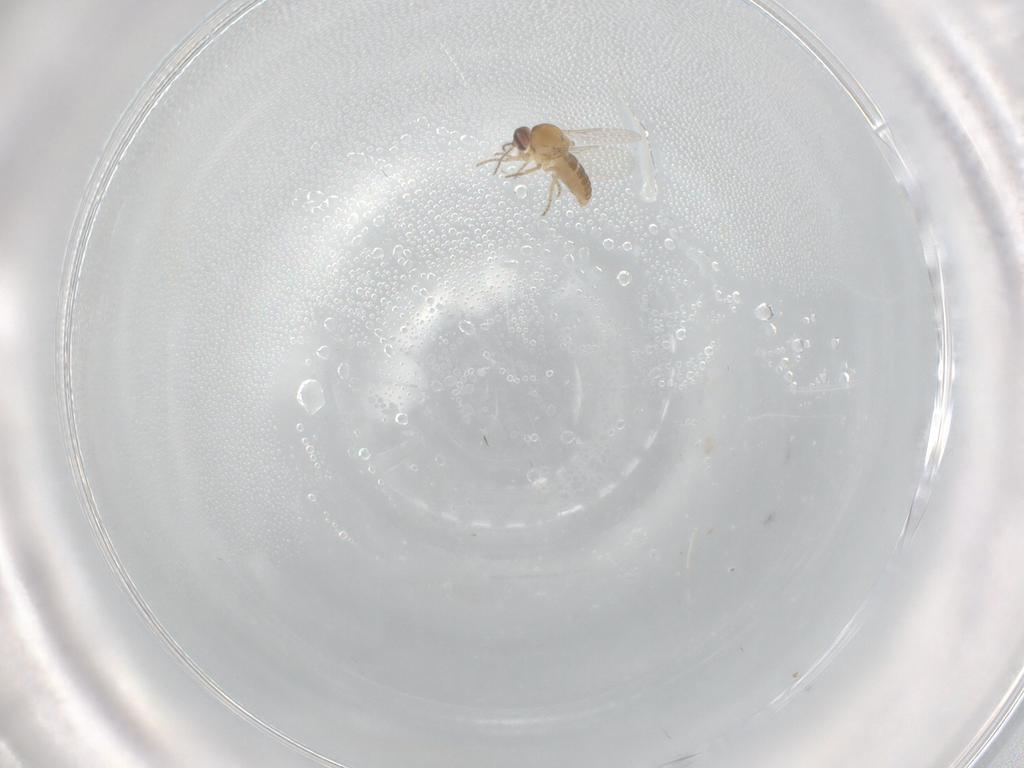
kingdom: Animalia
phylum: Arthropoda
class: Insecta
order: Diptera
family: Ceratopogonidae
